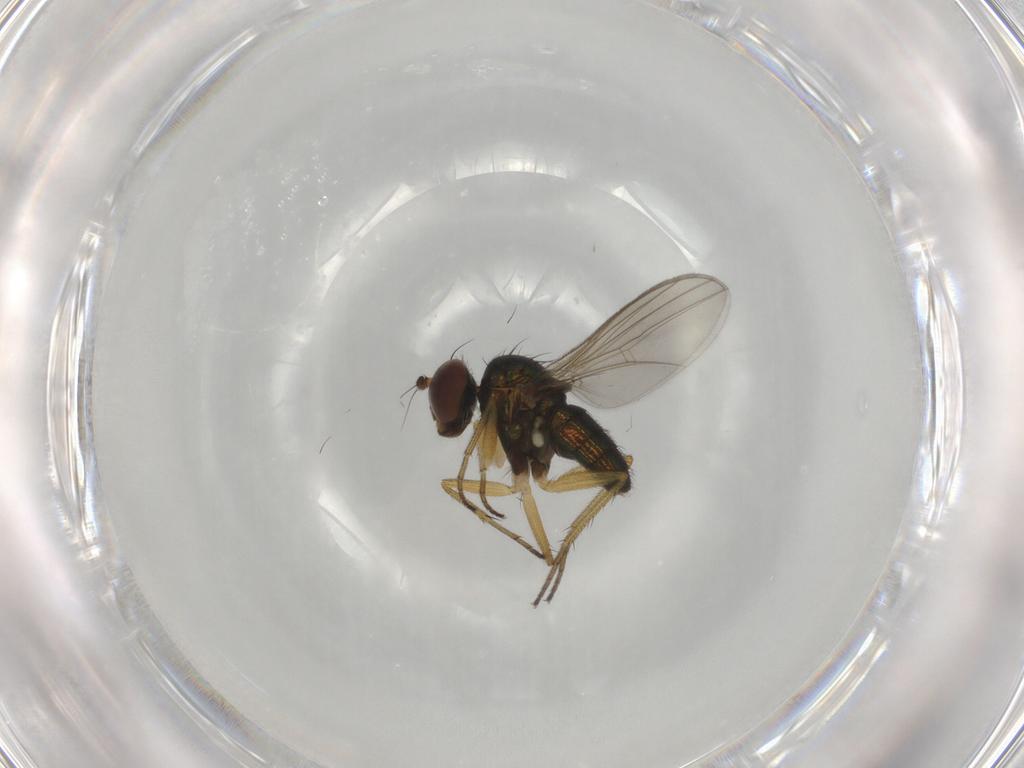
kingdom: Animalia
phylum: Arthropoda
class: Insecta
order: Diptera
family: Dolichopodidae
